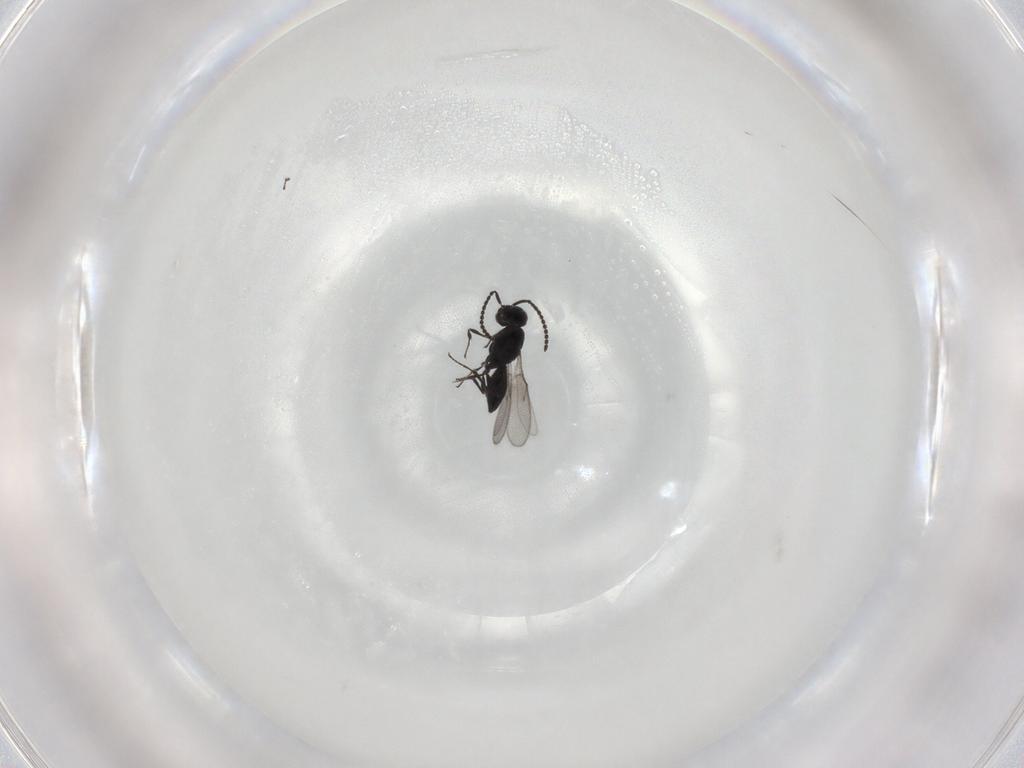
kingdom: Animalia
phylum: Arthropoda
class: Insecta
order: Hymenoptera
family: Scelionidae
